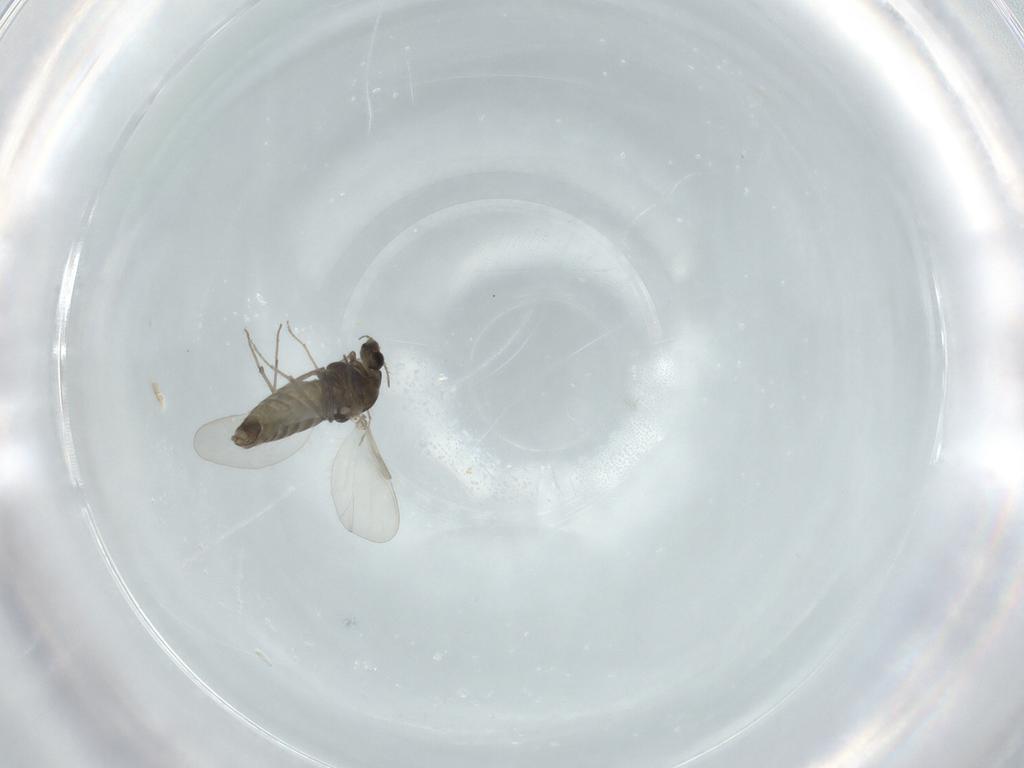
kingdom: Animalia
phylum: Arthropoda
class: Insecta
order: Diptera
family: Chironomidae
